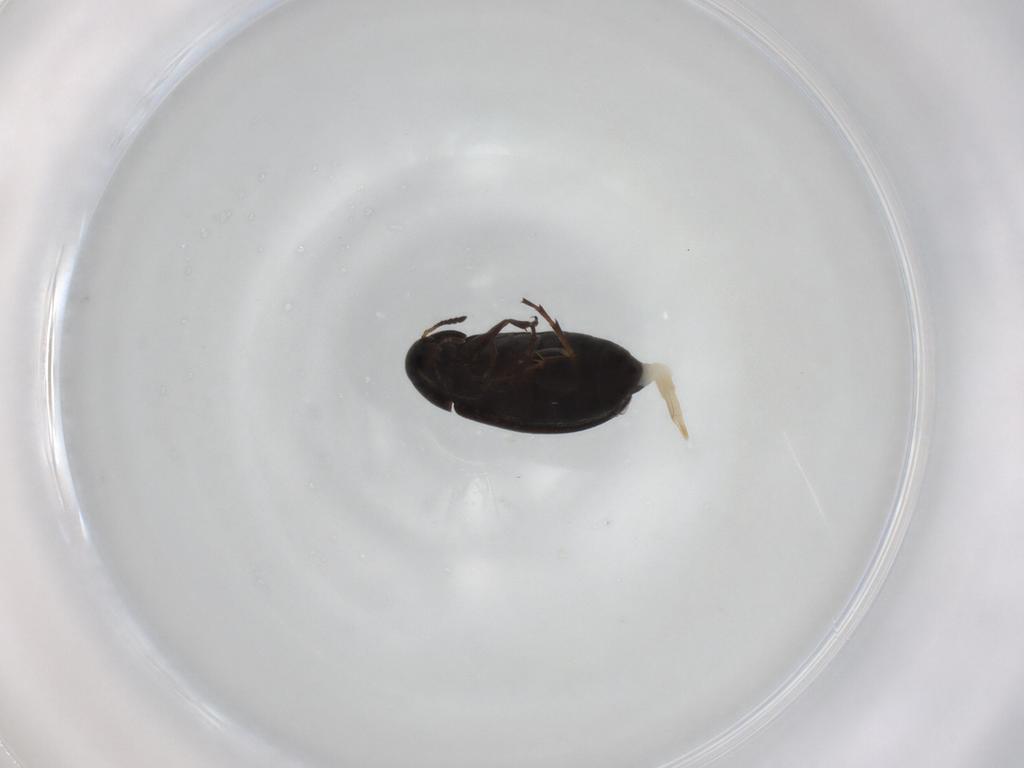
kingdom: Animalia
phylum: Arthropoda
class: Insecta
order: Coleoptera
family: Scraptiidae
